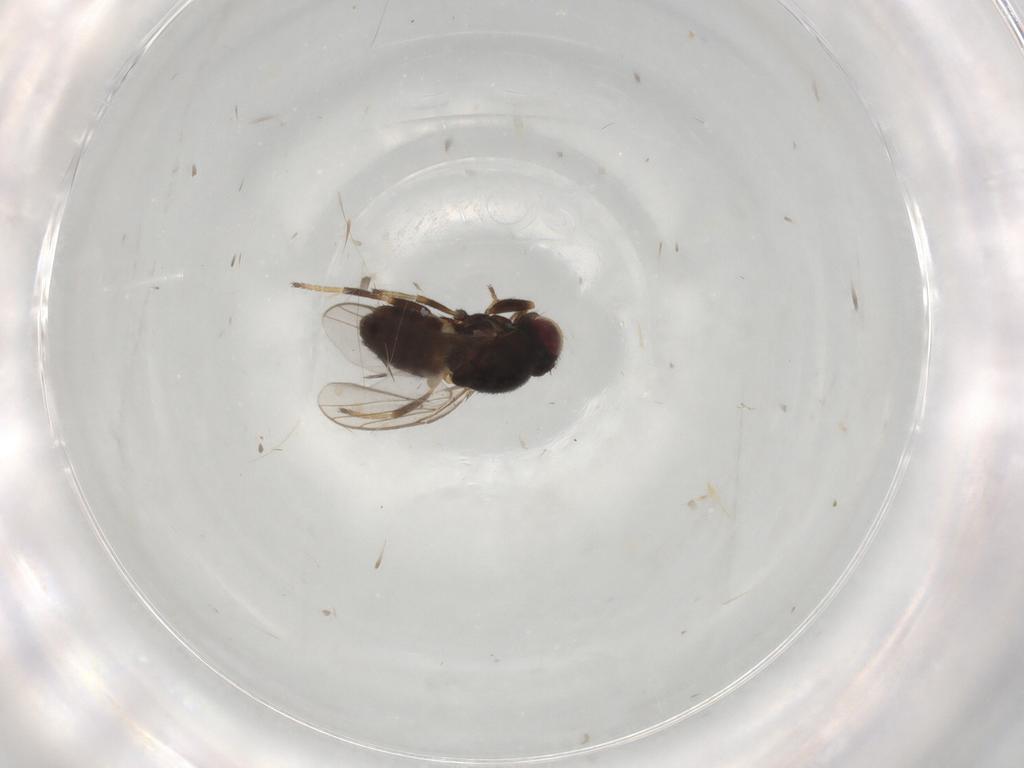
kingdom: Animalia
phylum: Arthropoda
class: Insecta
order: Diptera
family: Chloropidae
